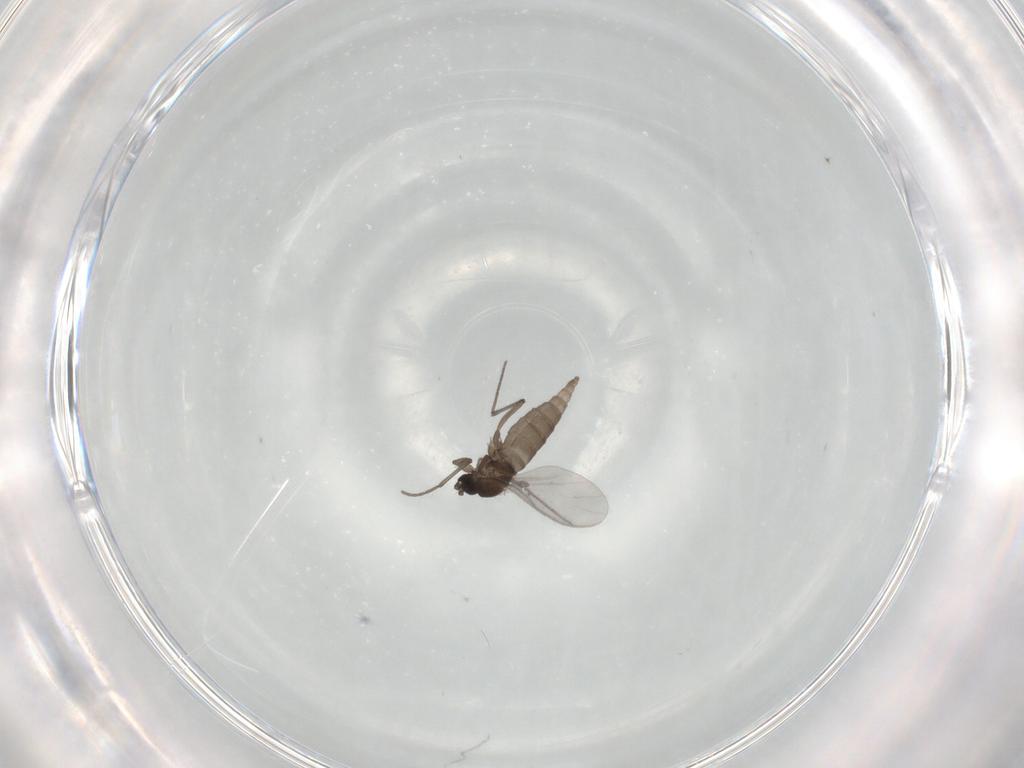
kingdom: Animalia
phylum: Arthropoda
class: Insecta
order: Diptera
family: Sciaridae
